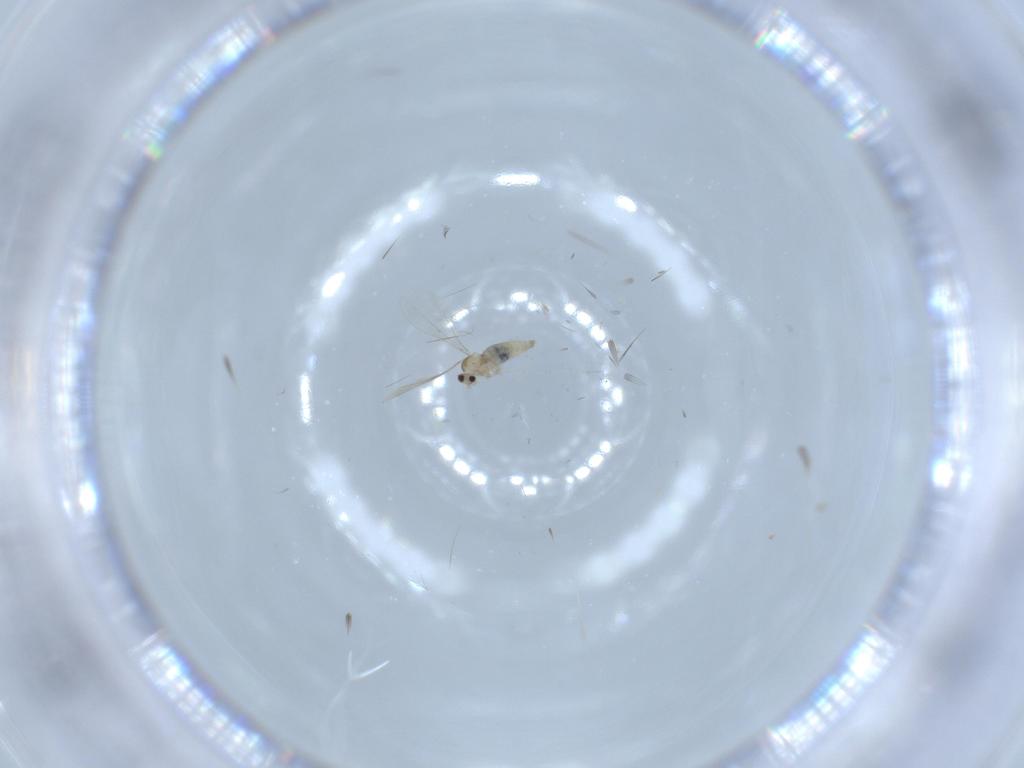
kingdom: Animalia
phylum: Arthropoda
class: Insecta
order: Diptera
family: Cecidomyiidae
